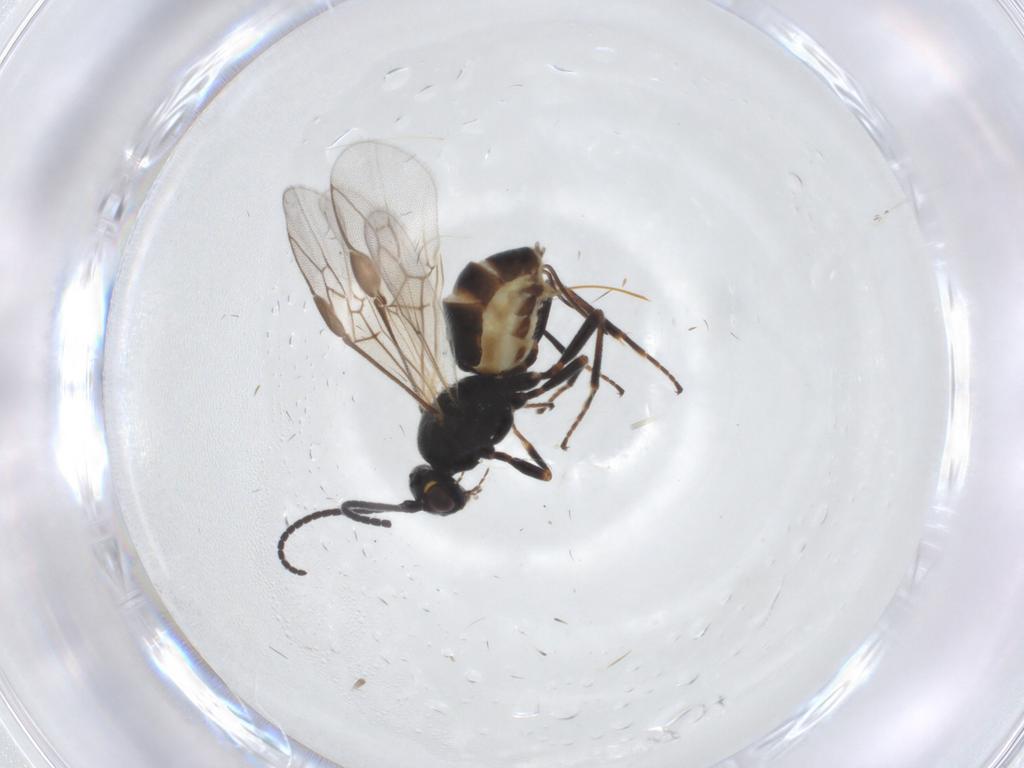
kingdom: Animalia
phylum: Arthropoda
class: Insecta
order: Hymenoptera
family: Braconidae
